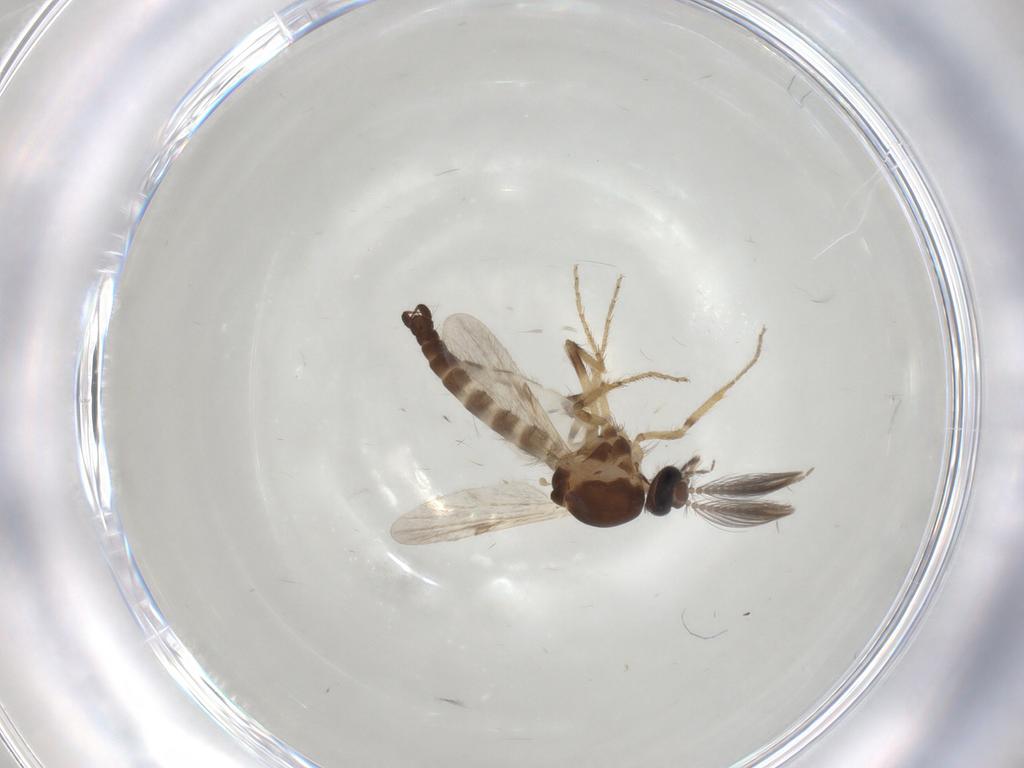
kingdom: Animalia
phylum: Arthropoda
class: Insecta
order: Diptera
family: Ceratopogonidae
